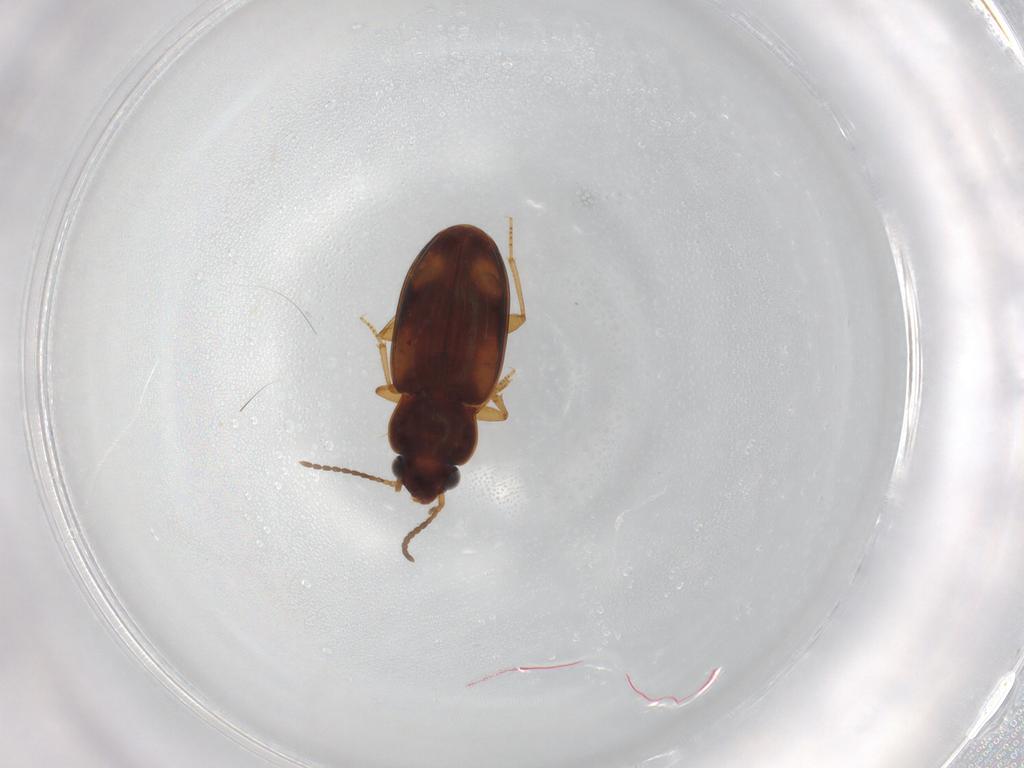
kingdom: Animalia
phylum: Arthropoda
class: Insecta
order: Coleoptera
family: Carabidae
